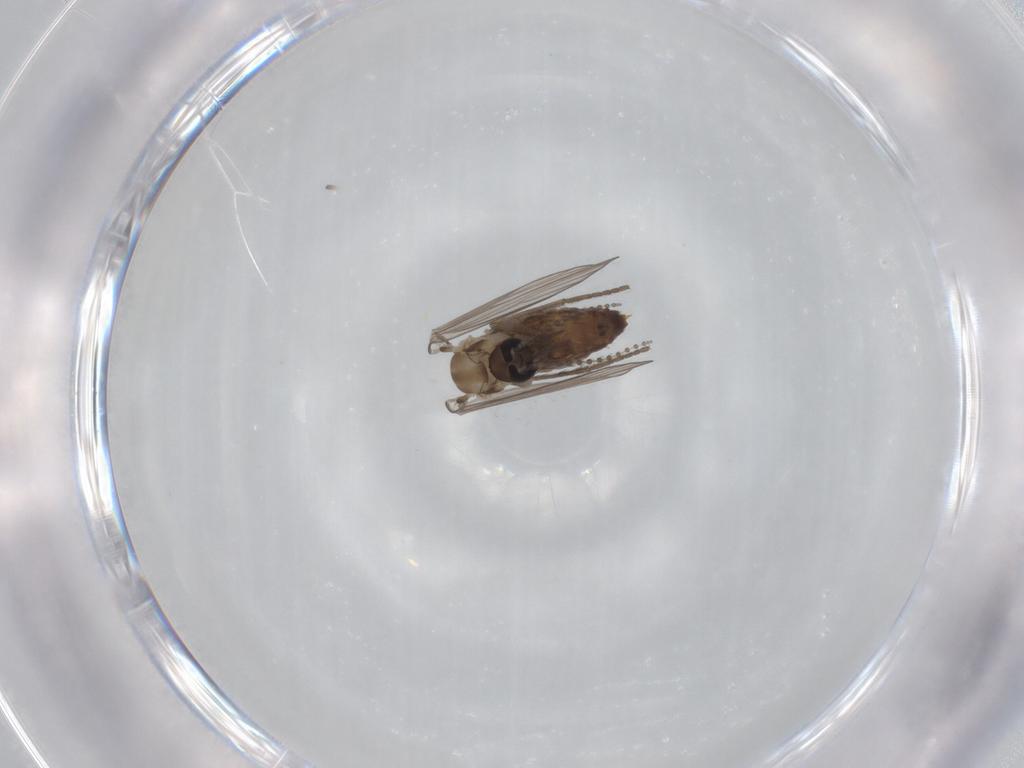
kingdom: Animalia
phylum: Arthropoda
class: Insecta
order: Diptera
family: Psychodidae
